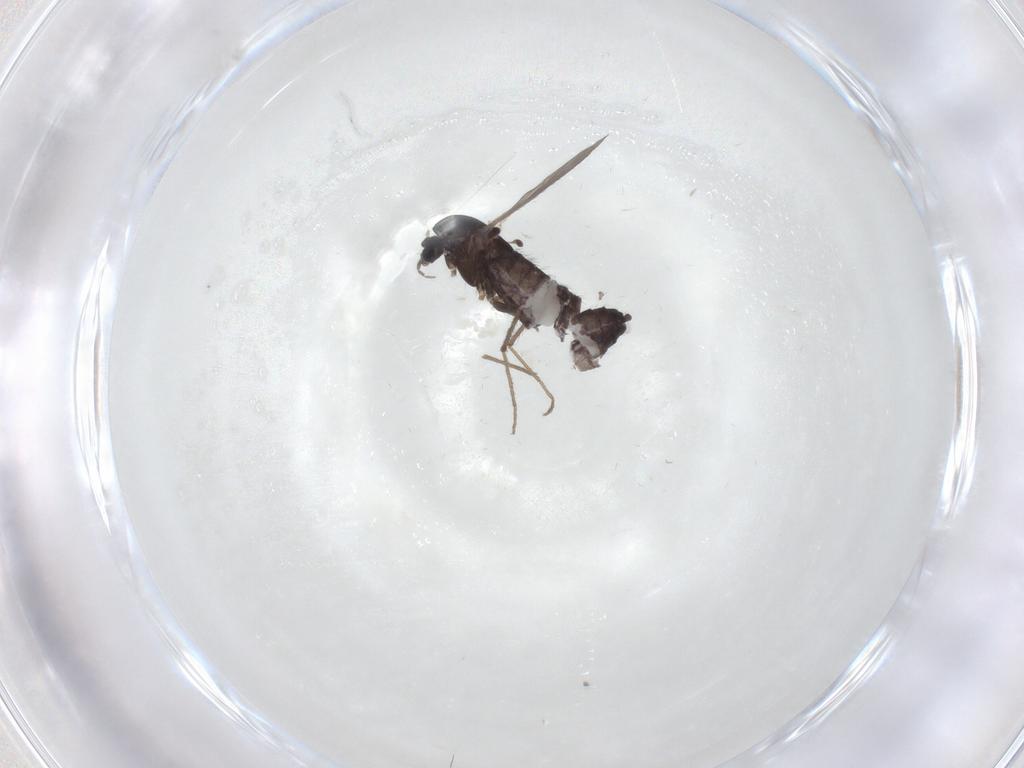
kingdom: Animalia
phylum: Arthropoda
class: Insecta
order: Diptera
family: Chironomidae
